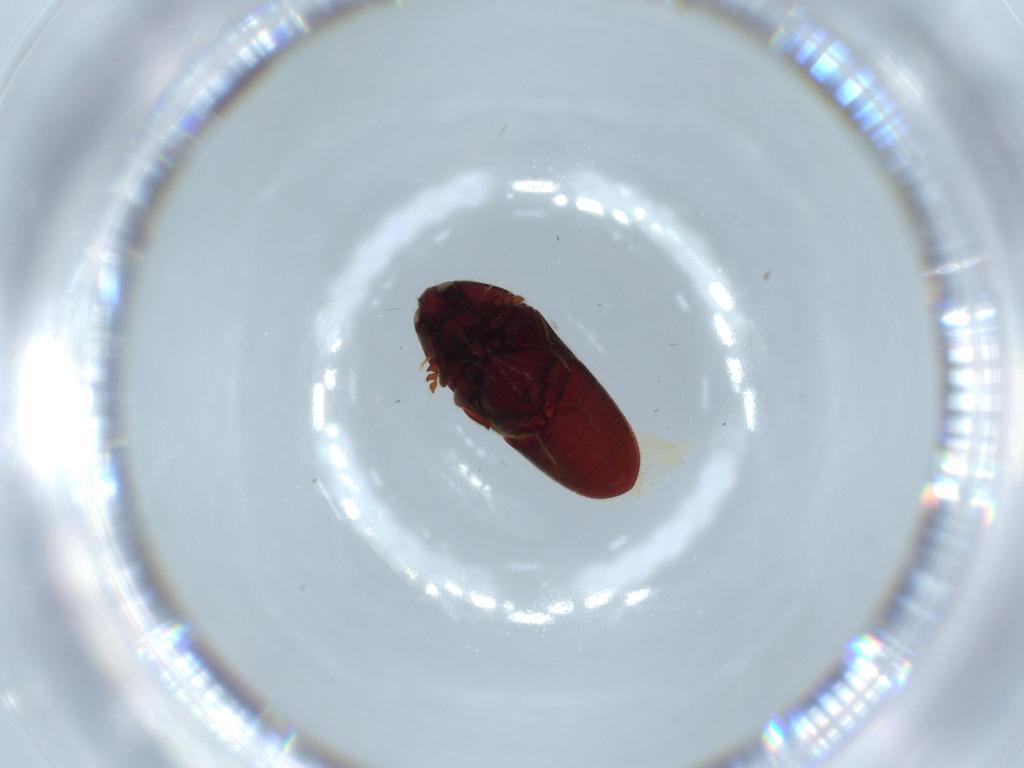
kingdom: Animalia
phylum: Arthropoda
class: Insecta
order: Coleoptera
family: Throscidae
